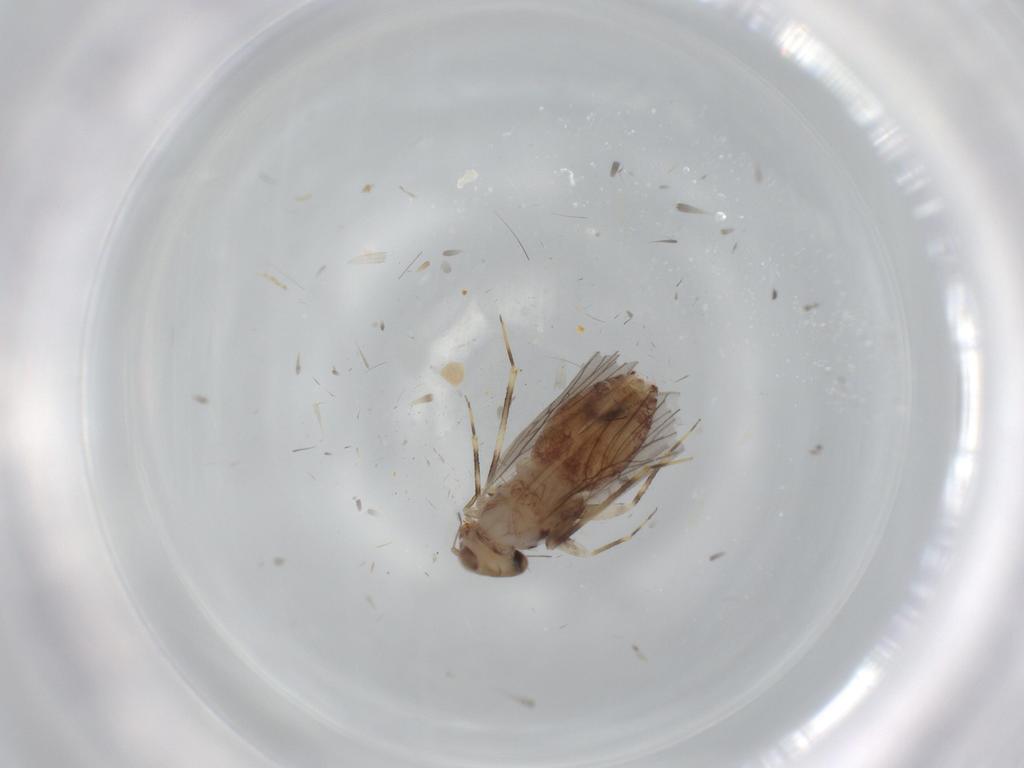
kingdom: Animalia
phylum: Arthropoda
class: Insecta
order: Psocodea
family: Lepidopsocidae
